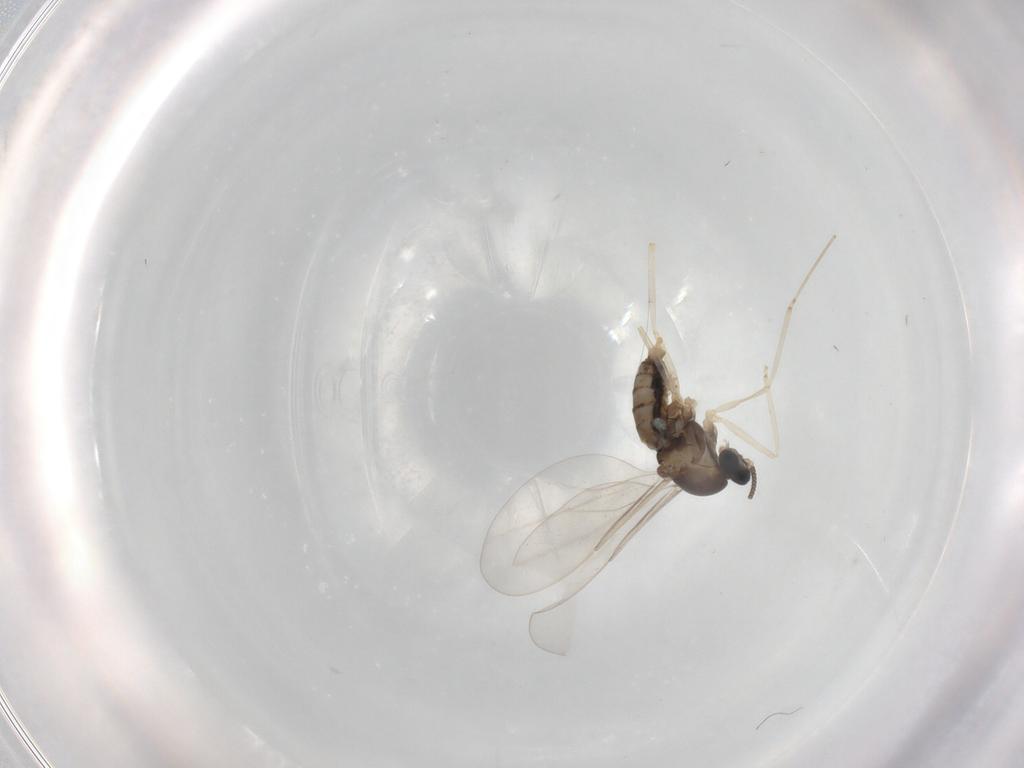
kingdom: Animalia
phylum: Arthropoda
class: Insecta
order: Diptera
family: Cecidomyiidae
